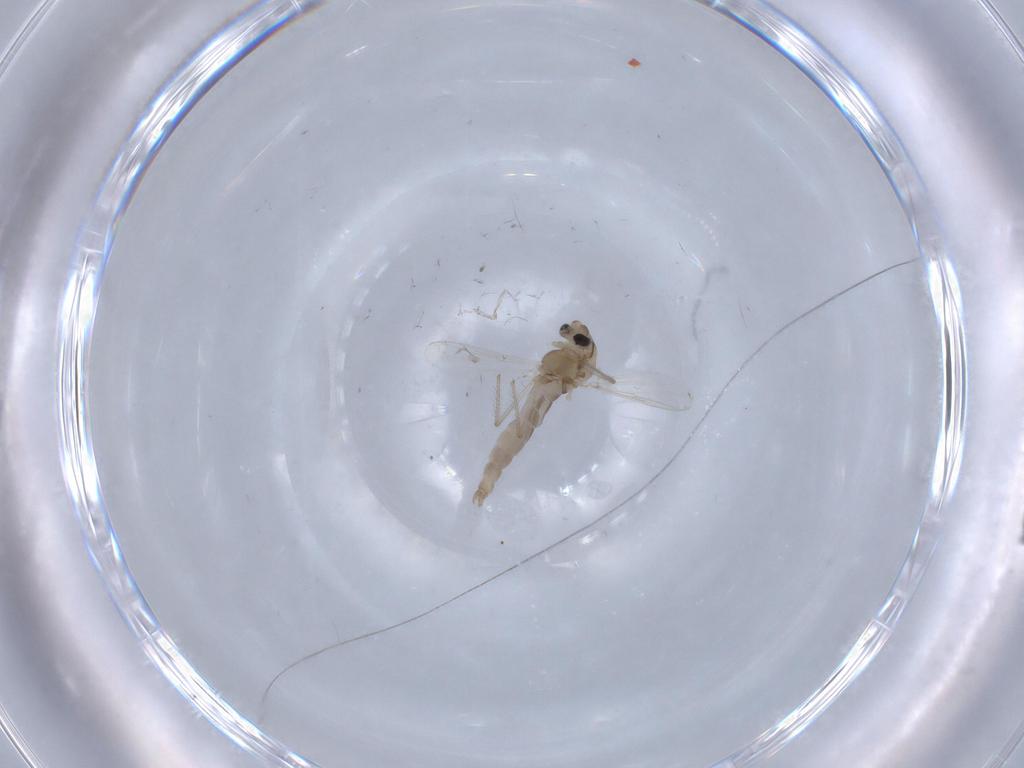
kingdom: Animalia
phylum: Arthropoda
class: Insecta
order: Diptera
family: Chironomidae
